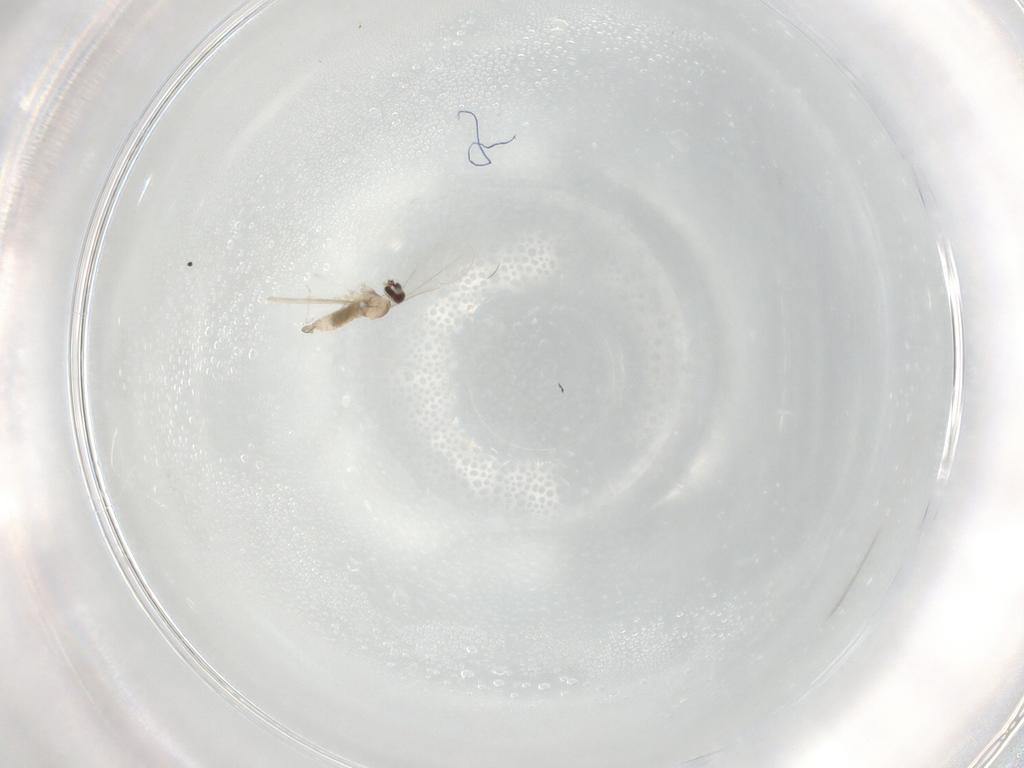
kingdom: Animalia
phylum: Arthropoda
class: Insecta
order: Diptera
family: Cecidomyiidae
